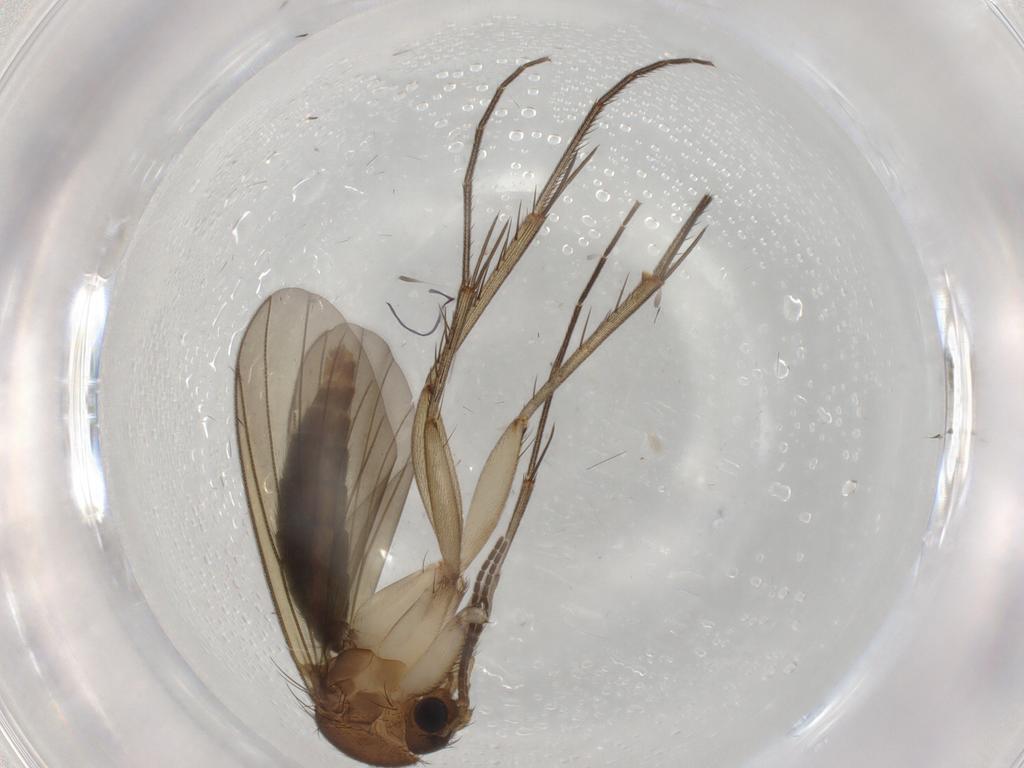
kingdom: Animalia
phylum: Arthropoda
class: Insecta
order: Diptera
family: Mycetophilidae
